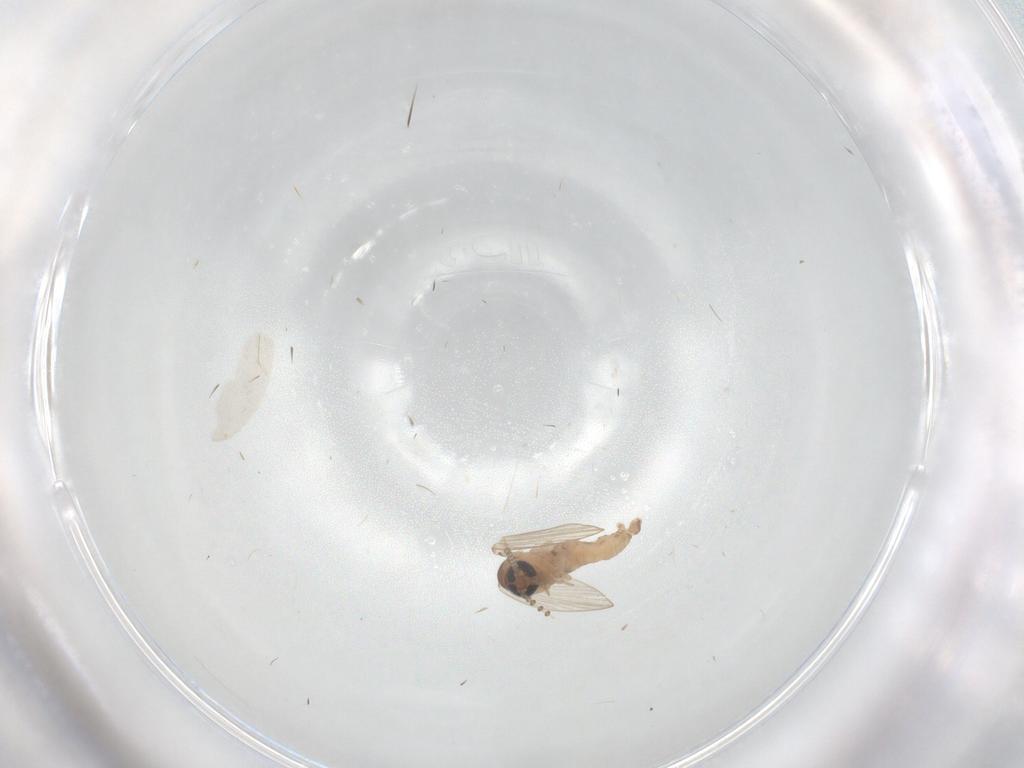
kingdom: Animalia
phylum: Arthropoda
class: Insecta
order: Diptera
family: Psychodidae
